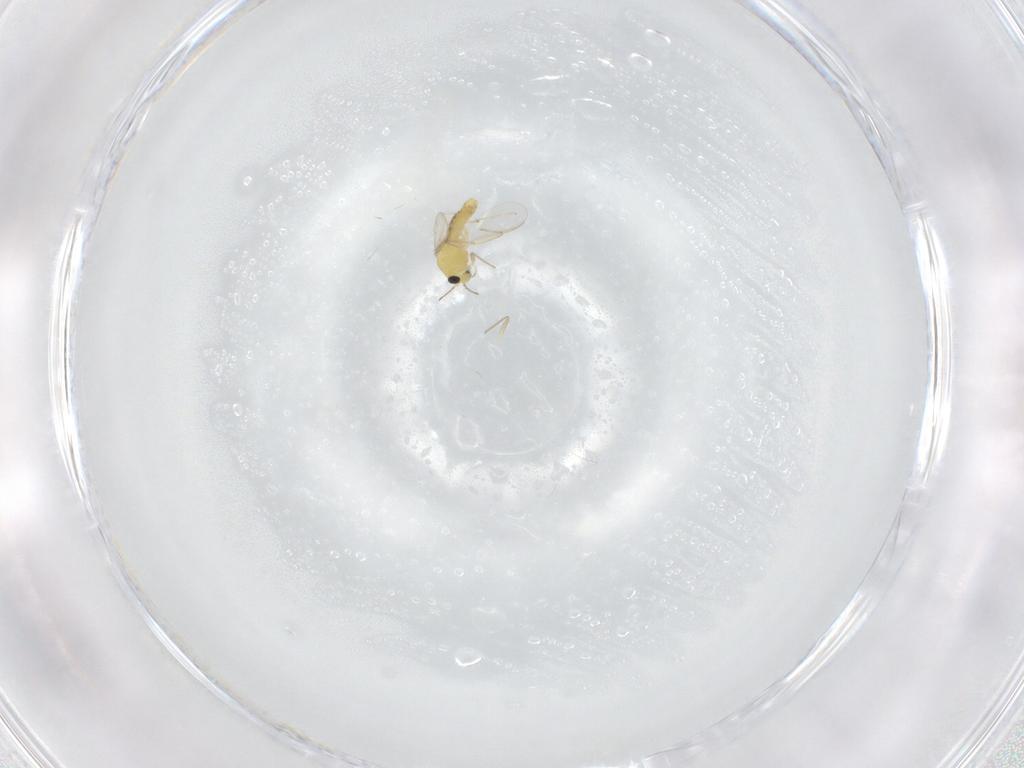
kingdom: Animalia
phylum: Arthropoda
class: Insecta
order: Diptera
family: Chironomidae
